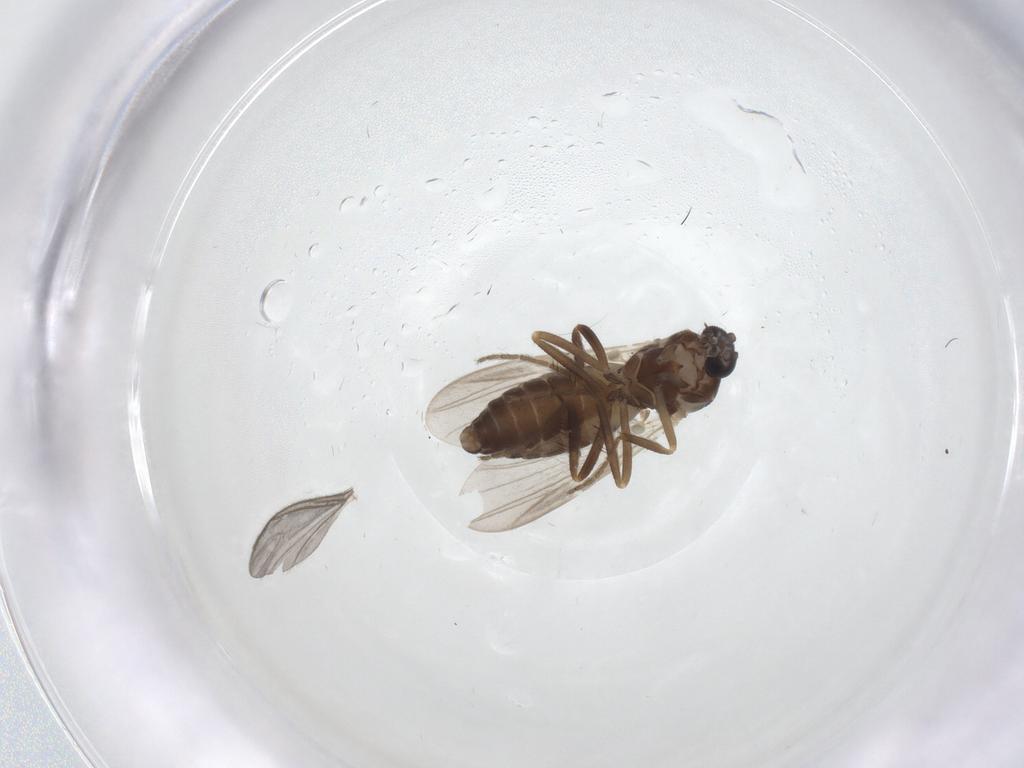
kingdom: Animalia
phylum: Arthropoda
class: Insecta
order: Diptera
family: Ceratopogonidae
